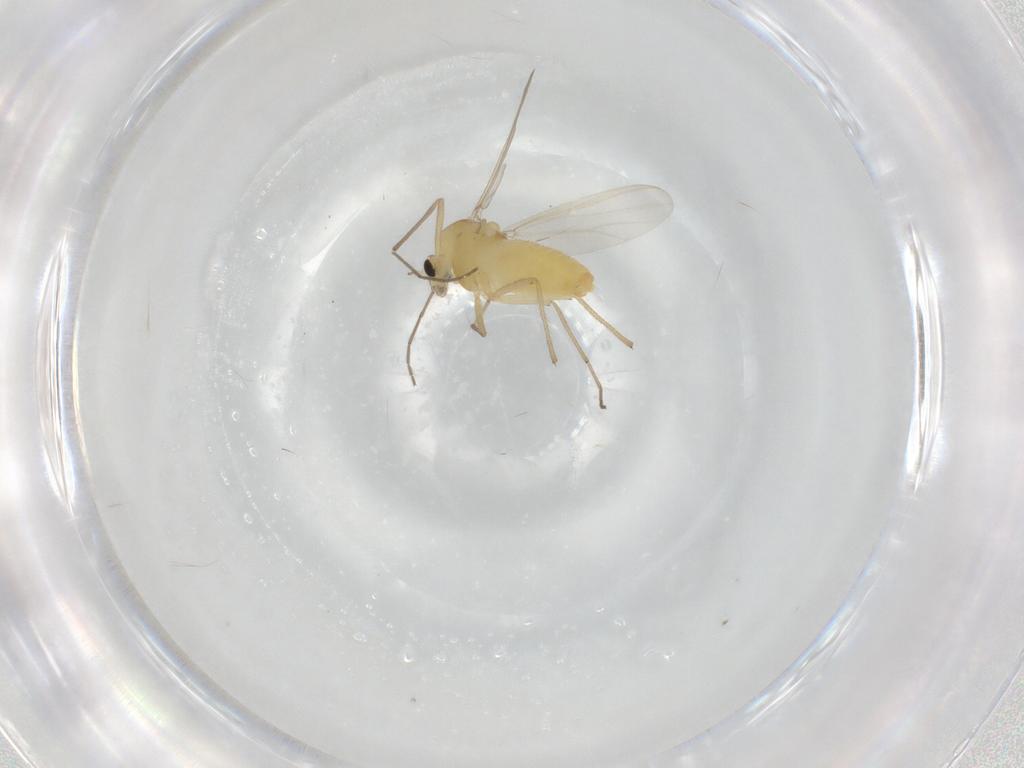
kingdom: Animalia
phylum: Arthropoda
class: Insecta
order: Diptera
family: Chironomidae
